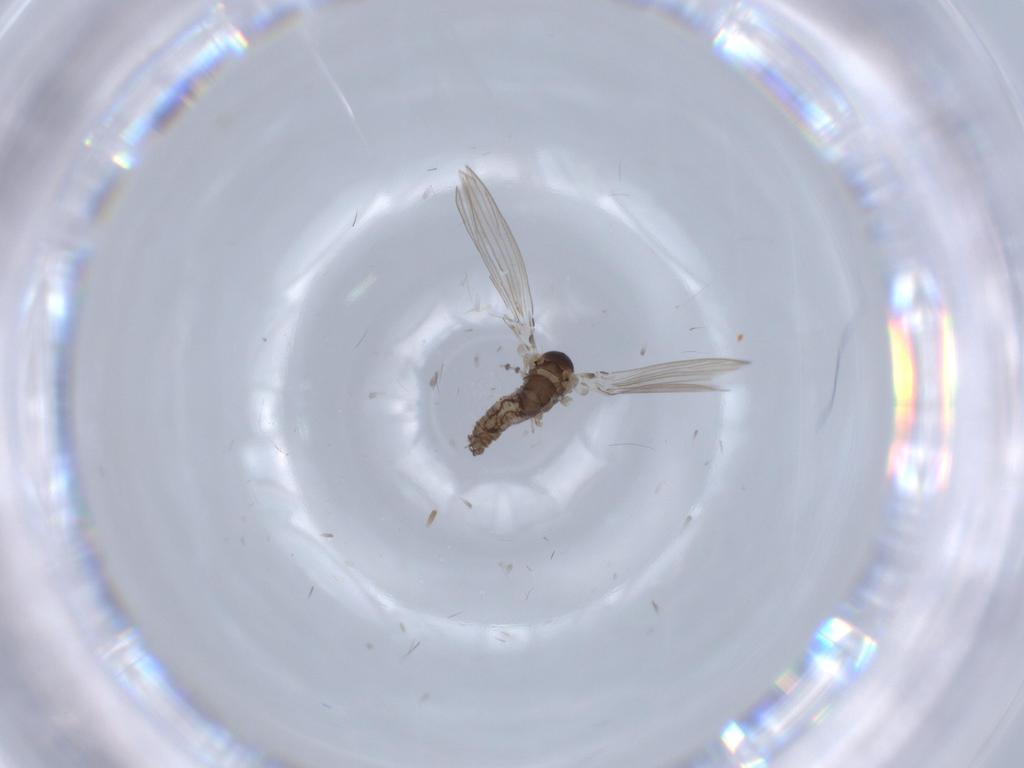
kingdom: Animalia
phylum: Arthropoda
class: Insecta
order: Diptera
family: Psychodidae
